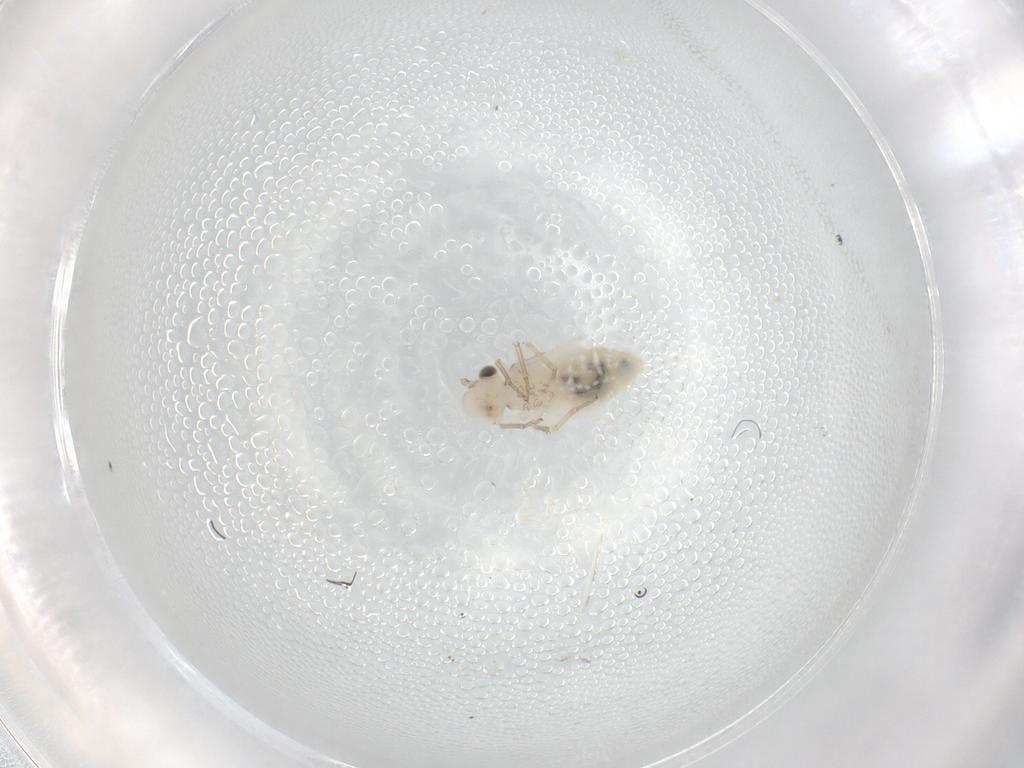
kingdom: Animalia
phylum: Arthropoda
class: Insecta
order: Psocodea
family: Caeciliusidae
